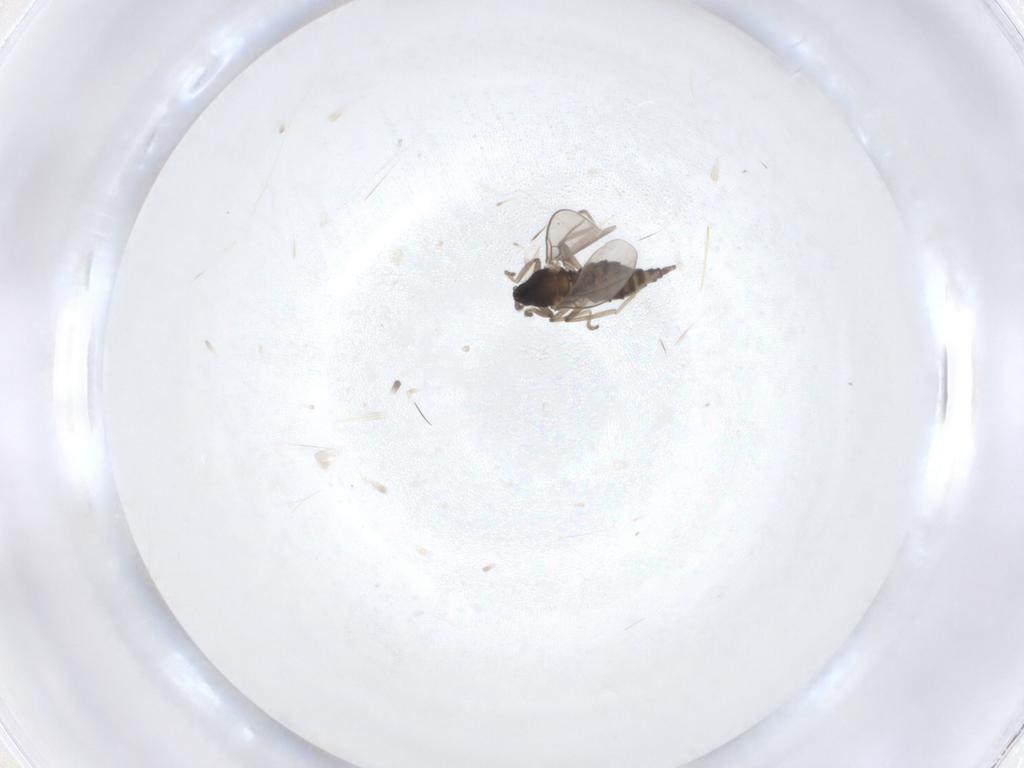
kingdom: Animalia
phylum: Arthropoda
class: Insecta
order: Diptera
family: Cecidomyiidae
